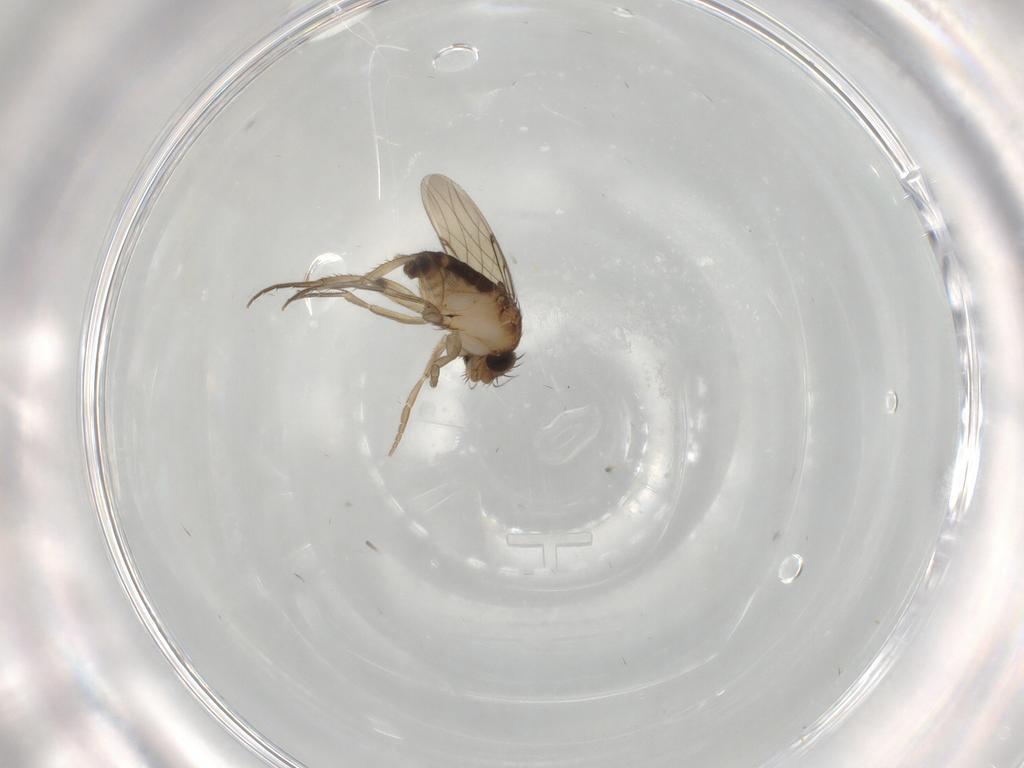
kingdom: Animalia
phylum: Arthropoda
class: Insecta
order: Diptera
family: Phoridae
